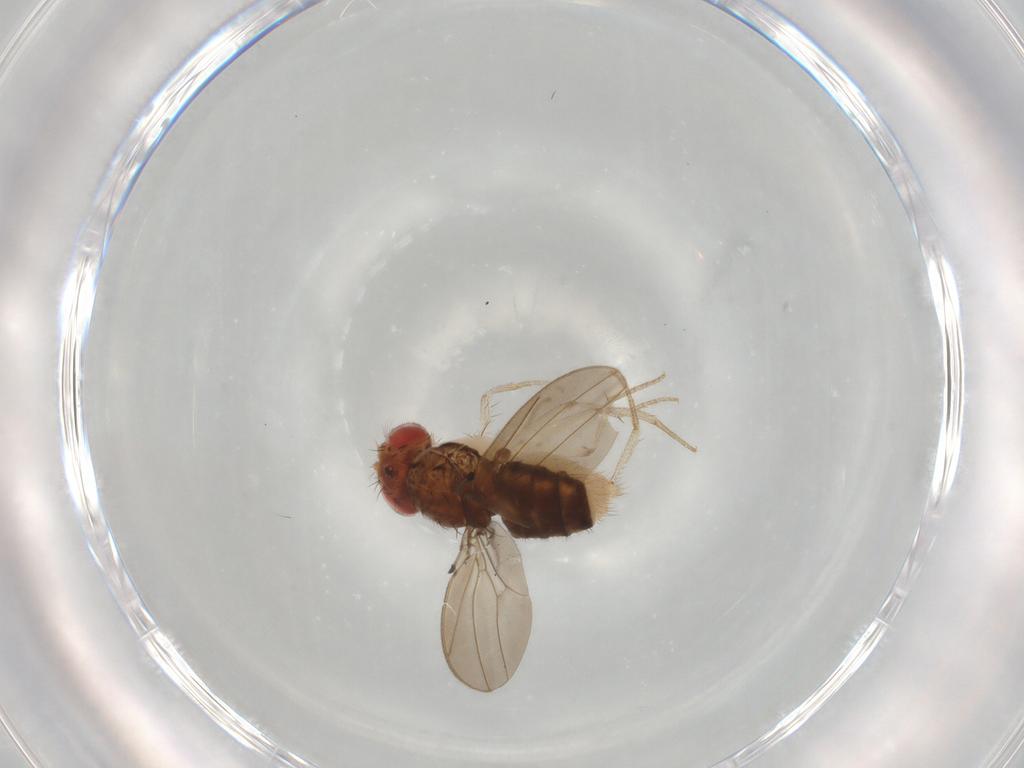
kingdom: Animalia
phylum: Arthropoda
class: Insecta
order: Diptera
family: Drosophilidae
